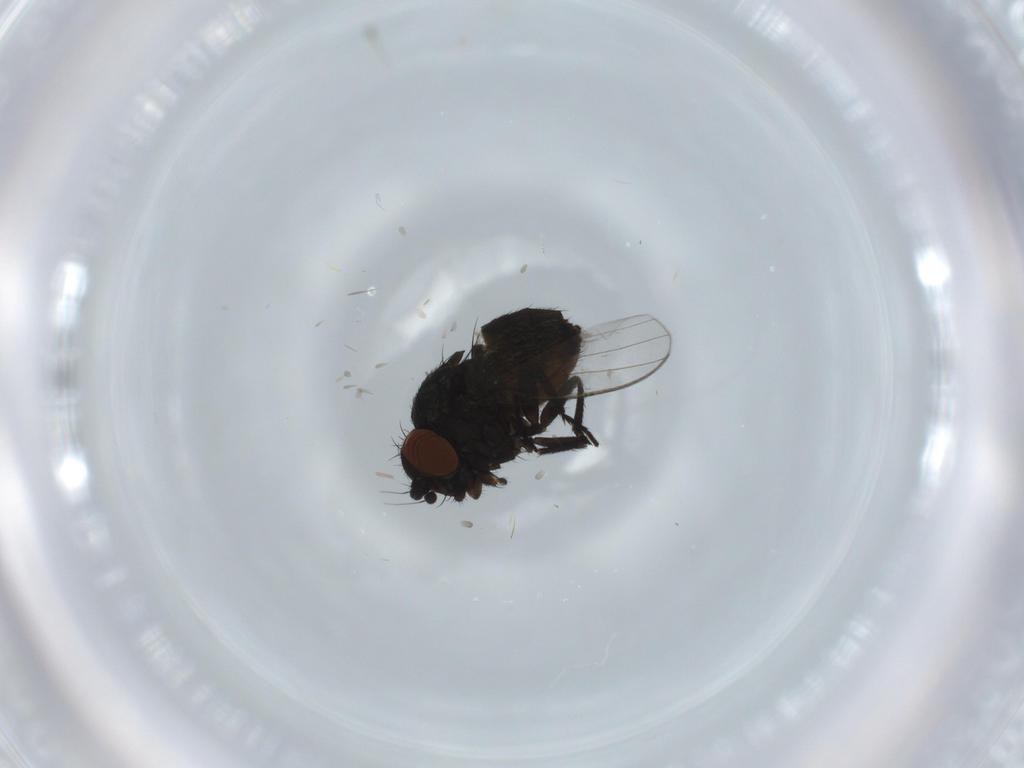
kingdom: Animalia
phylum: Arthropoda
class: Insecta
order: Diptera
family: Milichiidae
